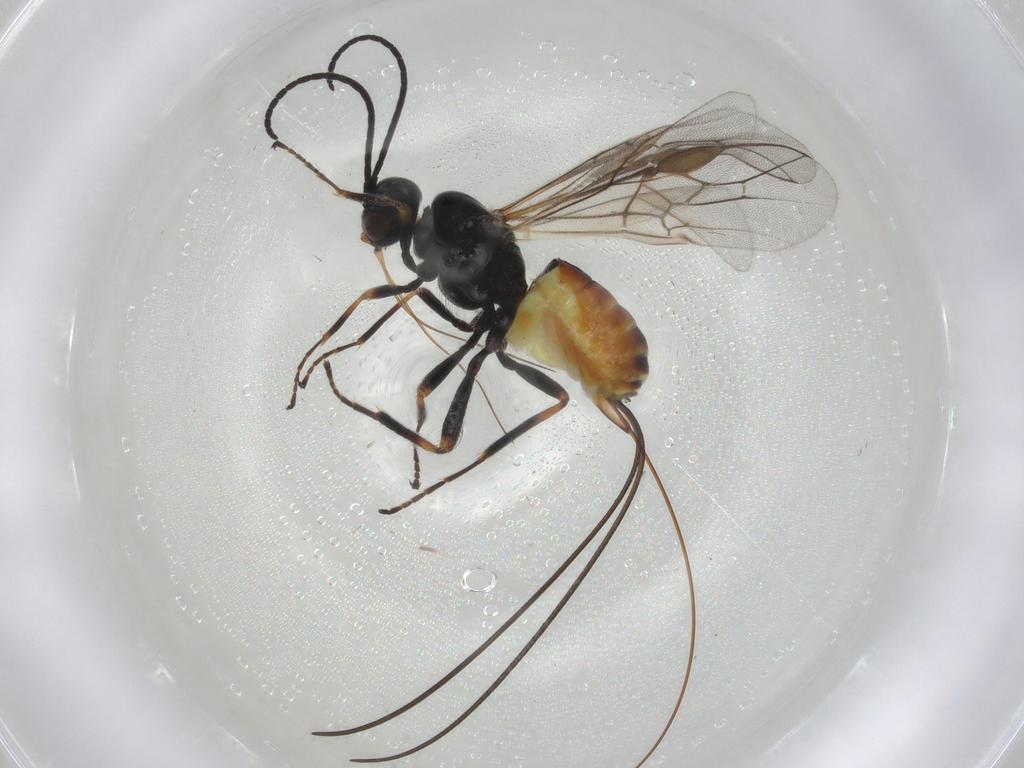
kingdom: Animalia
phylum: Arthropoda
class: Insecta
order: Hymenoptera
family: Braconidae
